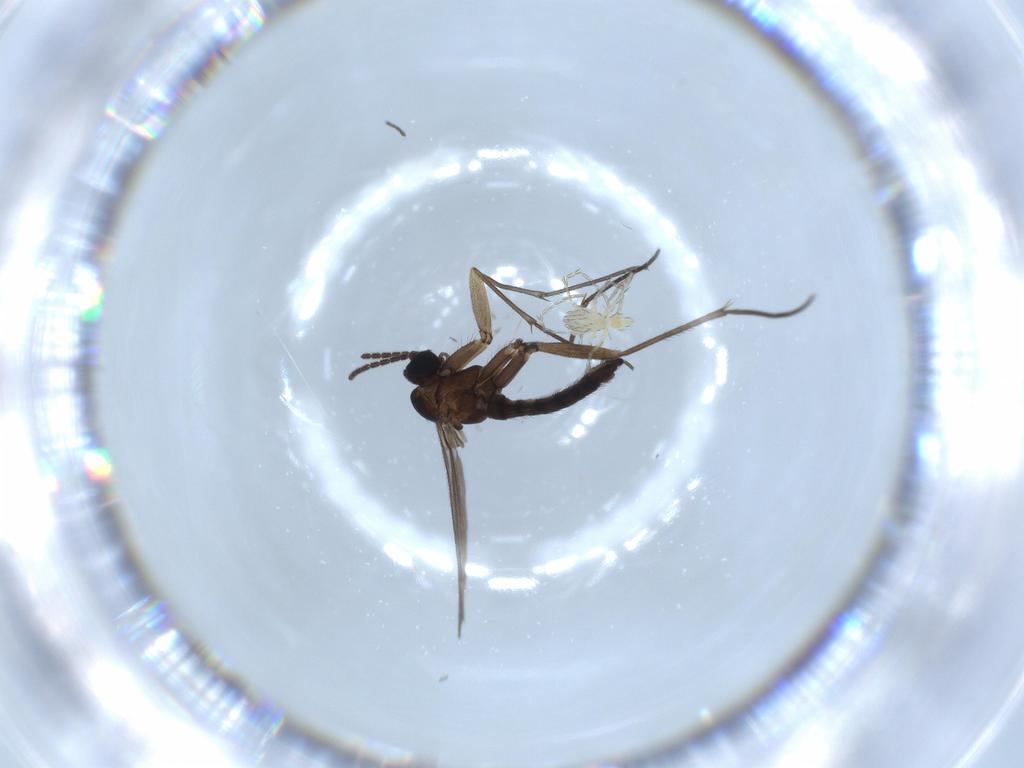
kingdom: Animalia
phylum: Arthropoda
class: Insecta
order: Diptera
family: Sciaridae
